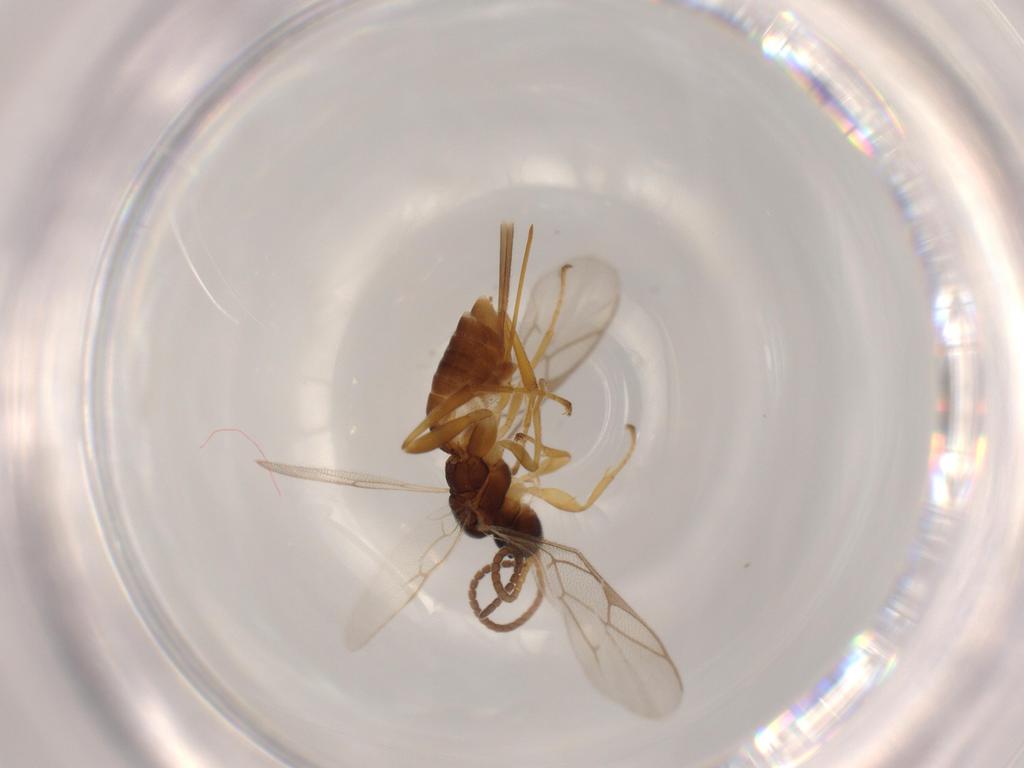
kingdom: Animalia
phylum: Arthropoda
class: Insecta
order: Hymenoptera
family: Ichneumonidae
